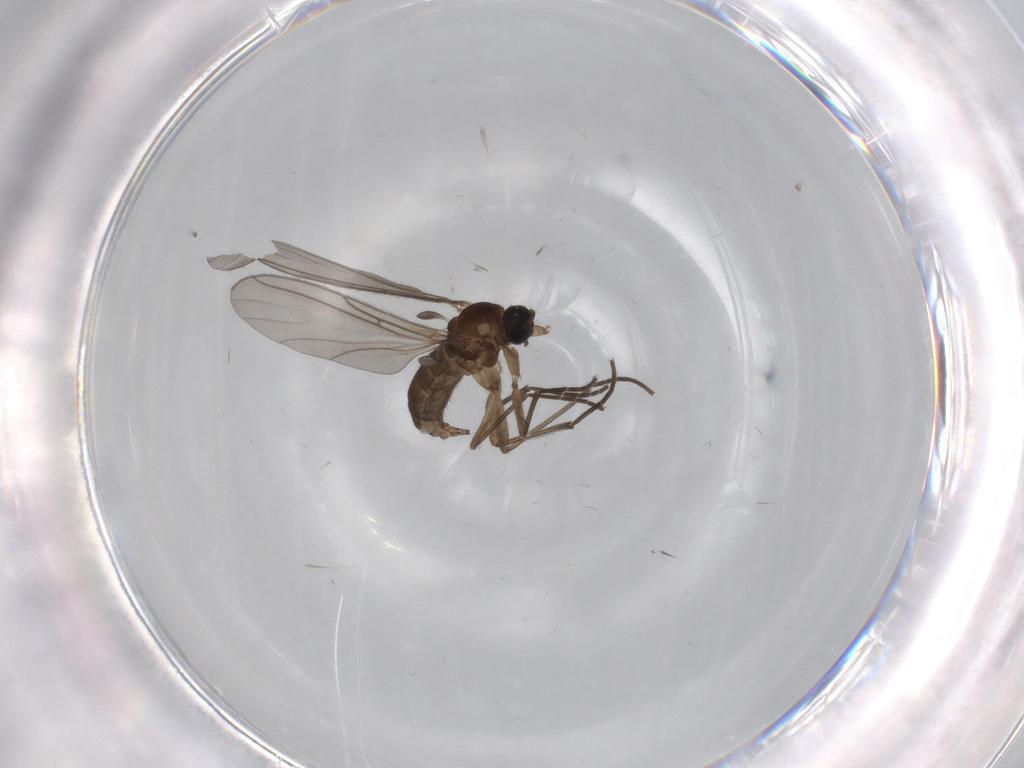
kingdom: Animalia
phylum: Arthropoda
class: Insecta
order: Diptera
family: Sciaridae
